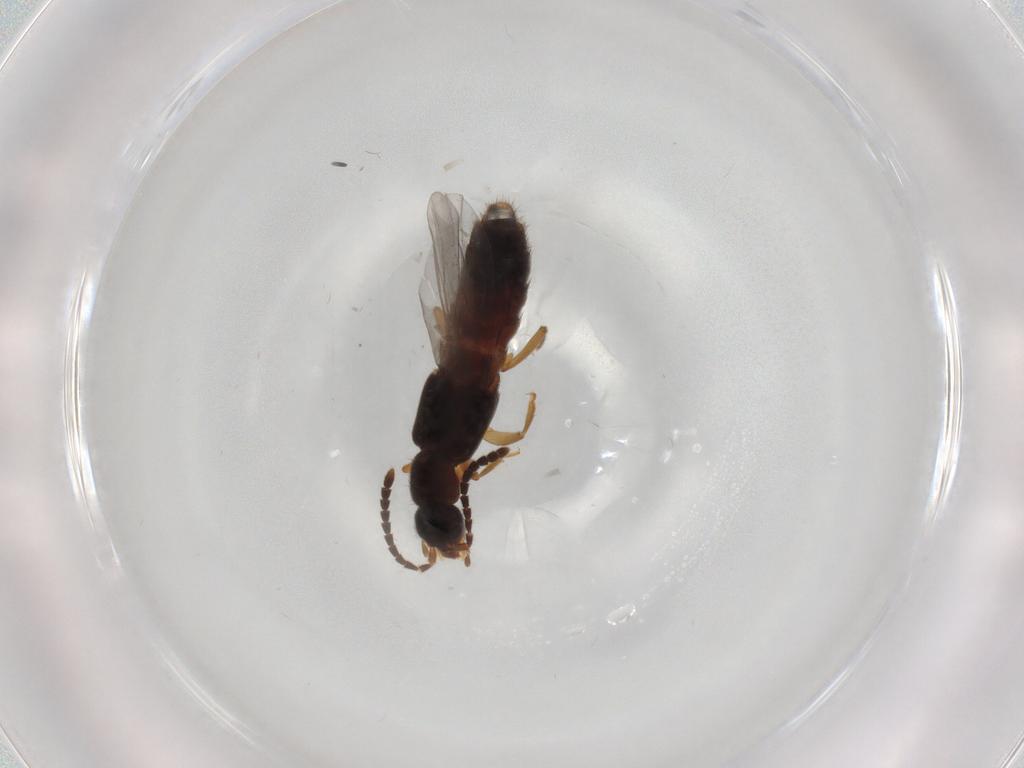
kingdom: Animalia
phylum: Arthropoda
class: Insecta
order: Coleoptera
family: Staphylinidae
